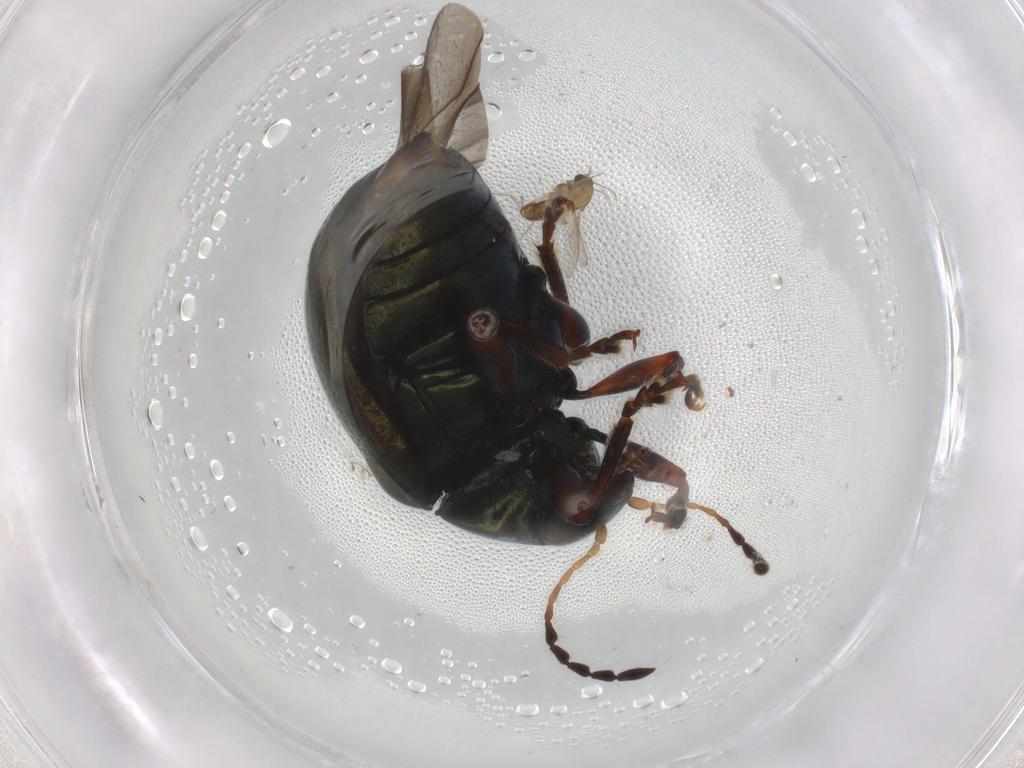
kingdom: Animalia
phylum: Arthropoda
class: Insecta
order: Diptera
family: Chironomidae
